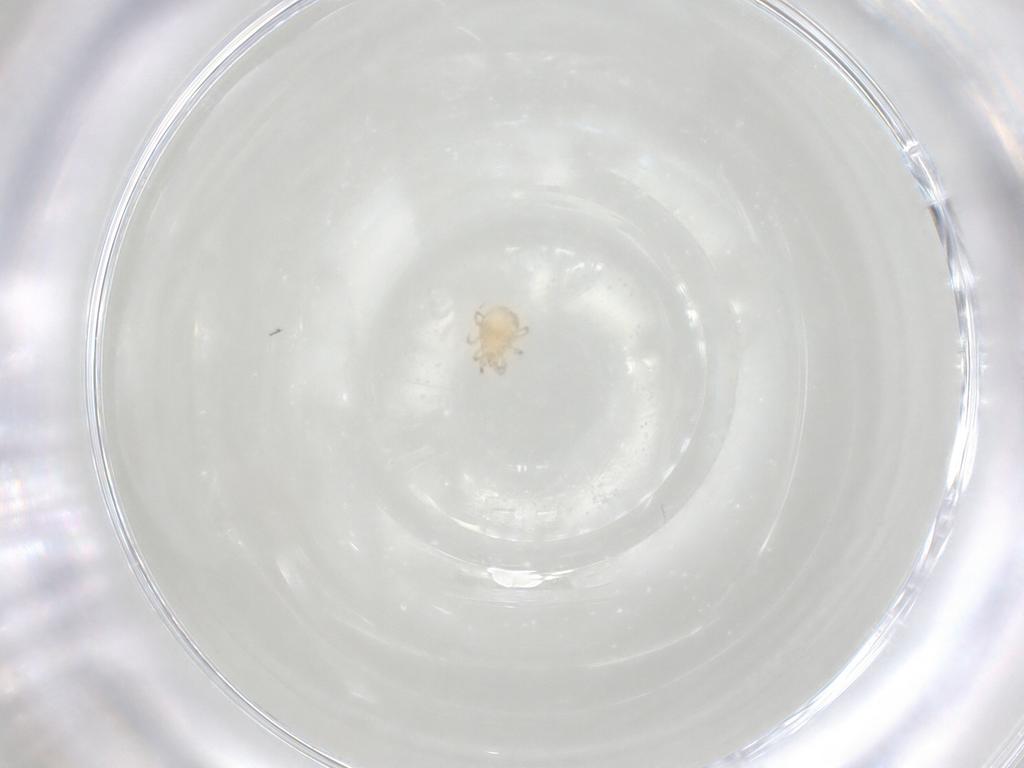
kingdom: Animalia
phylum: Arthropoda
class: Arachnida
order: Mesostigmata
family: Phytoseiidae
